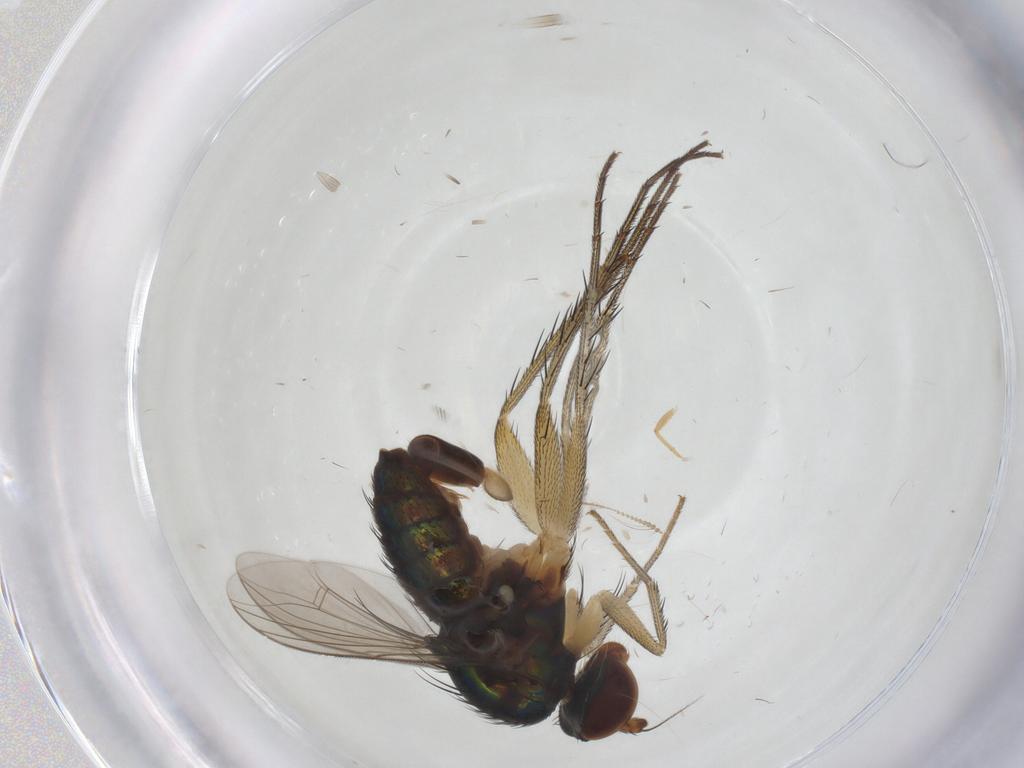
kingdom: Animalia
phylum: Arthropoda
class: Insecta
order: Diptera
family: Dolichopodidae
